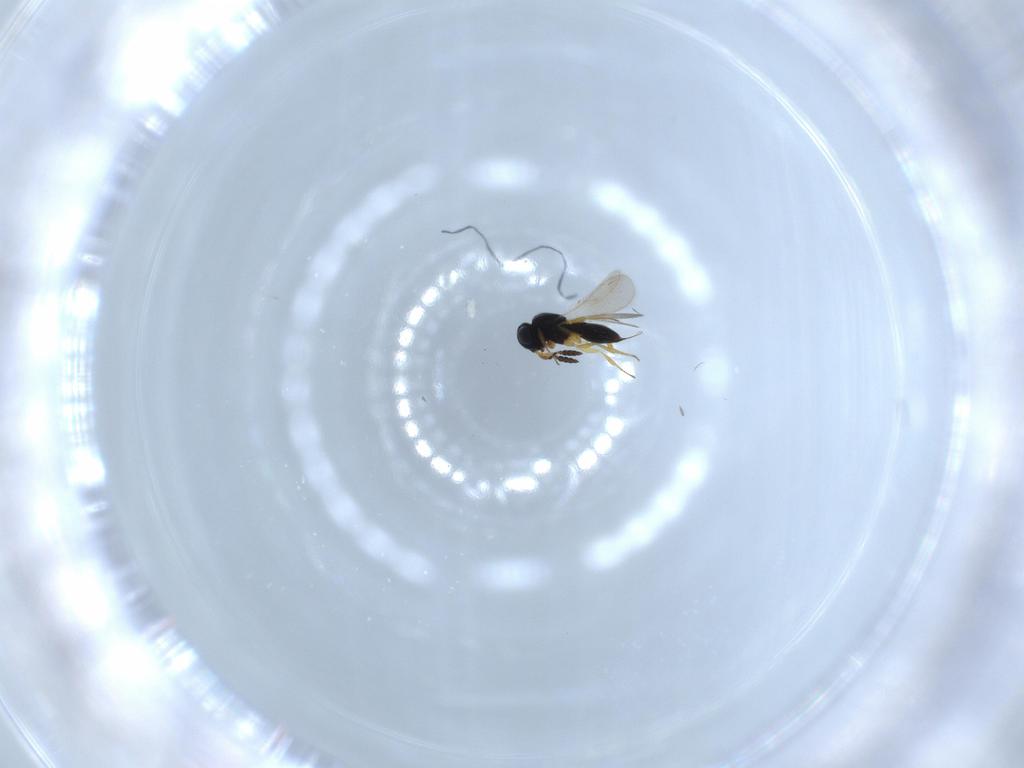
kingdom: Animalia
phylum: Arthropoda
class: Insecta
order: Hymenoptera
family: Scelionidae
